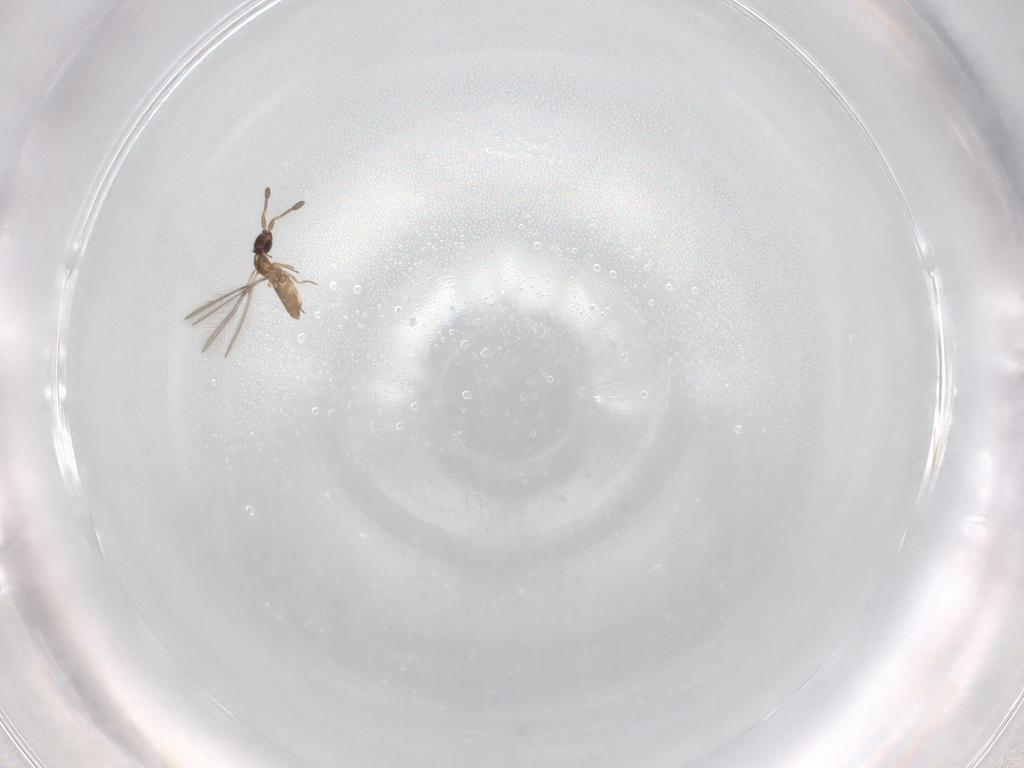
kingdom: Animalia
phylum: Arthropoda
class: Insecta
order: Hymenoptera
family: Mymaridae
